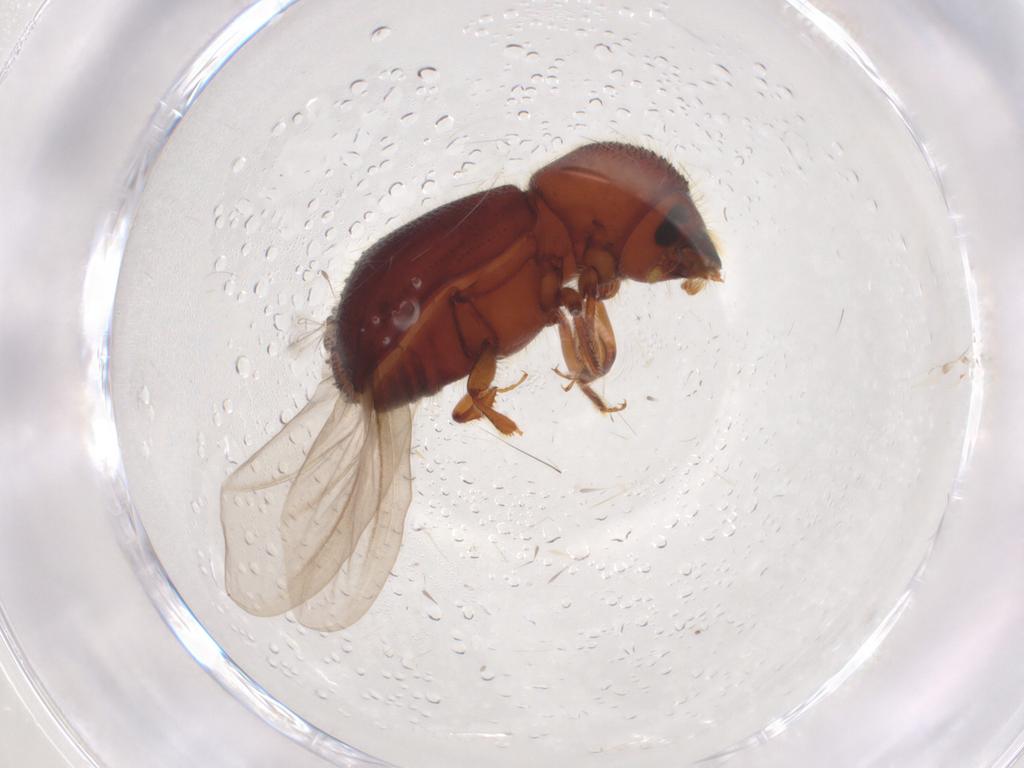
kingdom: Animalia
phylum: Arthropoda
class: Insecta
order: Coleoptera
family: Curculionidae
